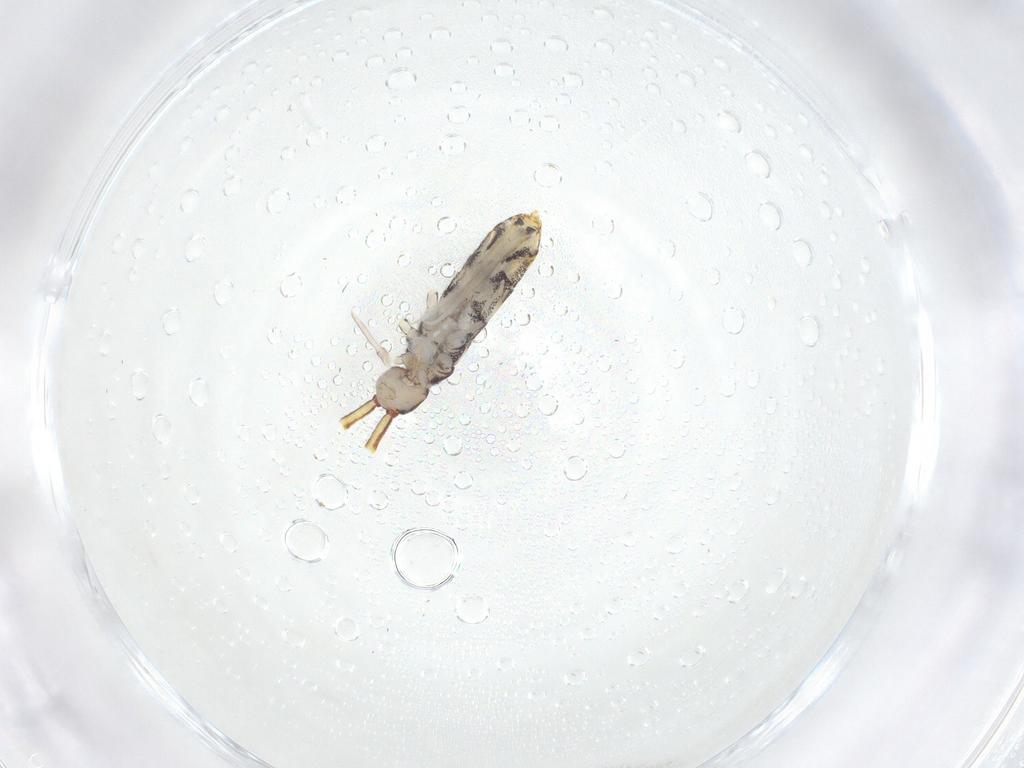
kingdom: Animalia
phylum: Arthropoda
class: Collembola
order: Entomobryomorpha
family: Entomobryidae
